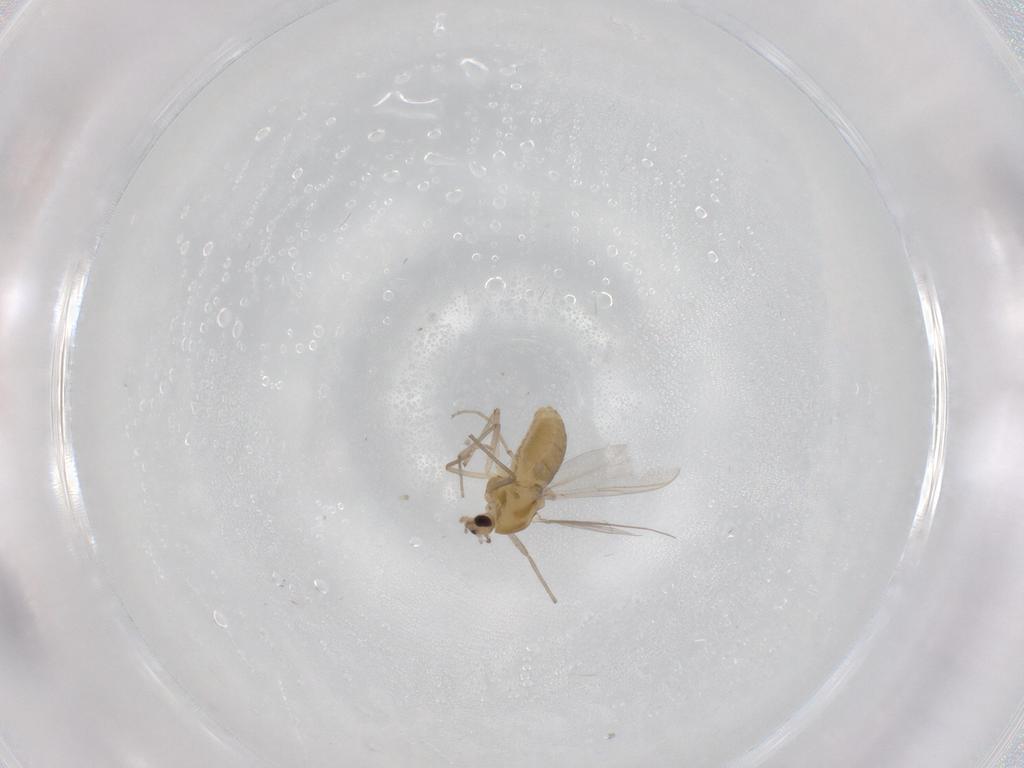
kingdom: Animalia
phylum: Arthropoda
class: Insecta
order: Diptera
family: Chironomidae
